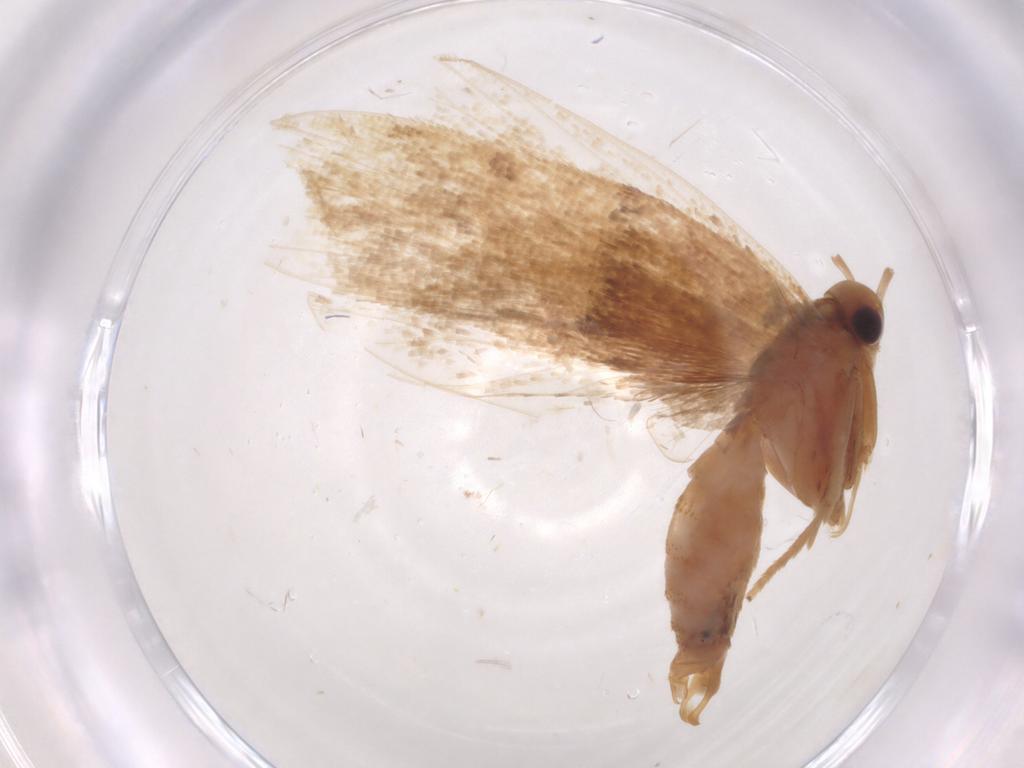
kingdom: Animalia
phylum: Arthropoda
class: Insecta
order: Lepidoptera
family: Lecithoceridae
